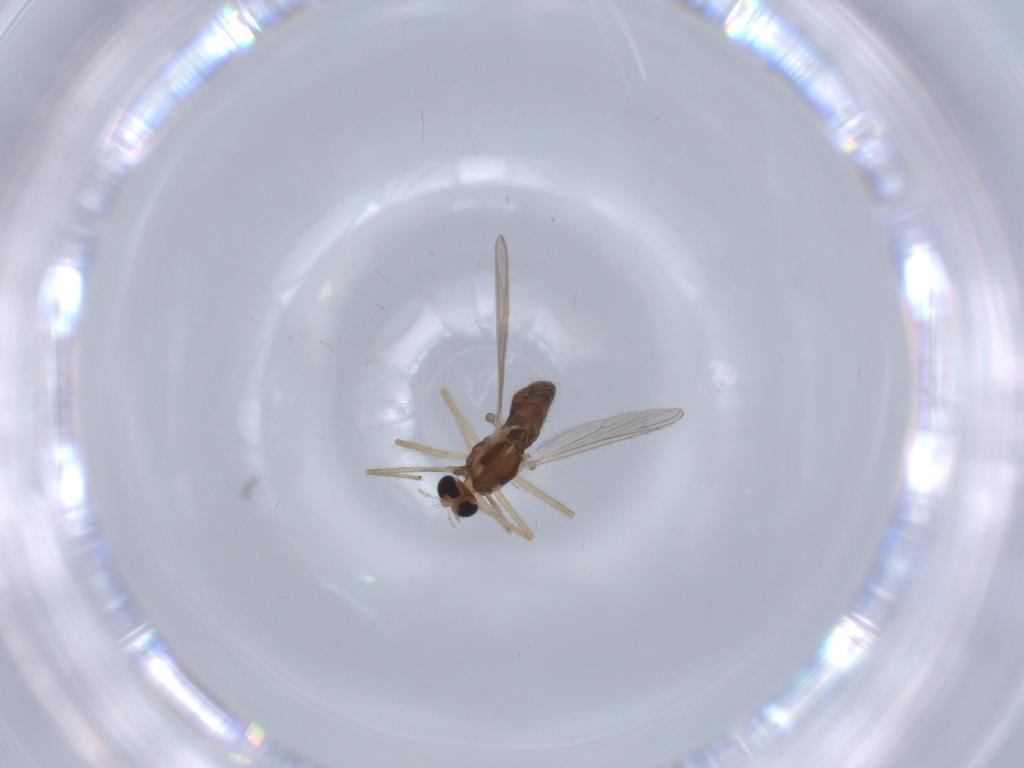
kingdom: Animalia
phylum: Arthropoda
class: Insecta
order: Diptera
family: Chironomidae
